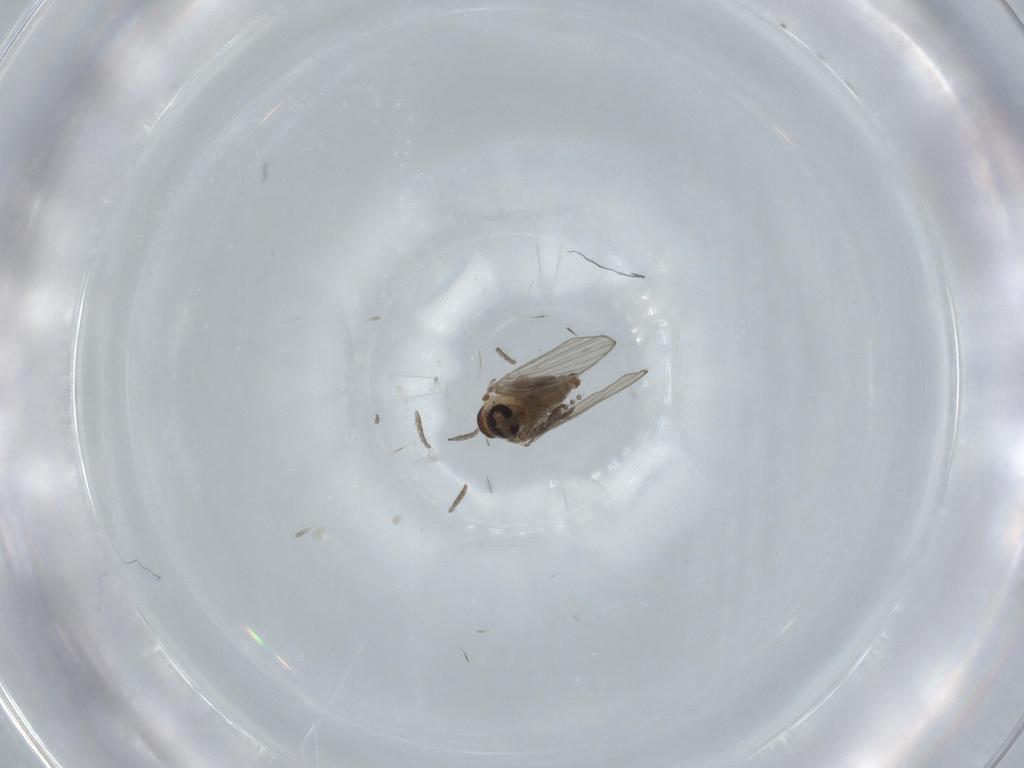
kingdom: Animalia
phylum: Arthropoda
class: Insecta
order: Diptera
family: Psychodidae
